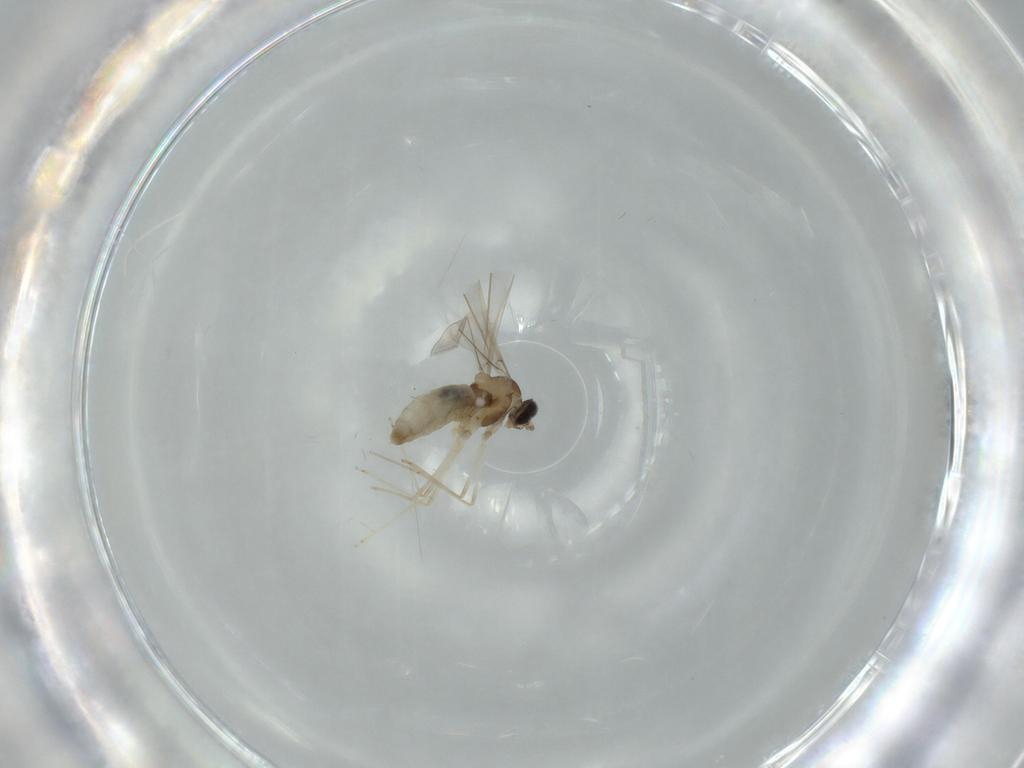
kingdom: Animalia
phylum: Arthropoda
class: Insecta
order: Diptera
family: Cecidomyiidae
